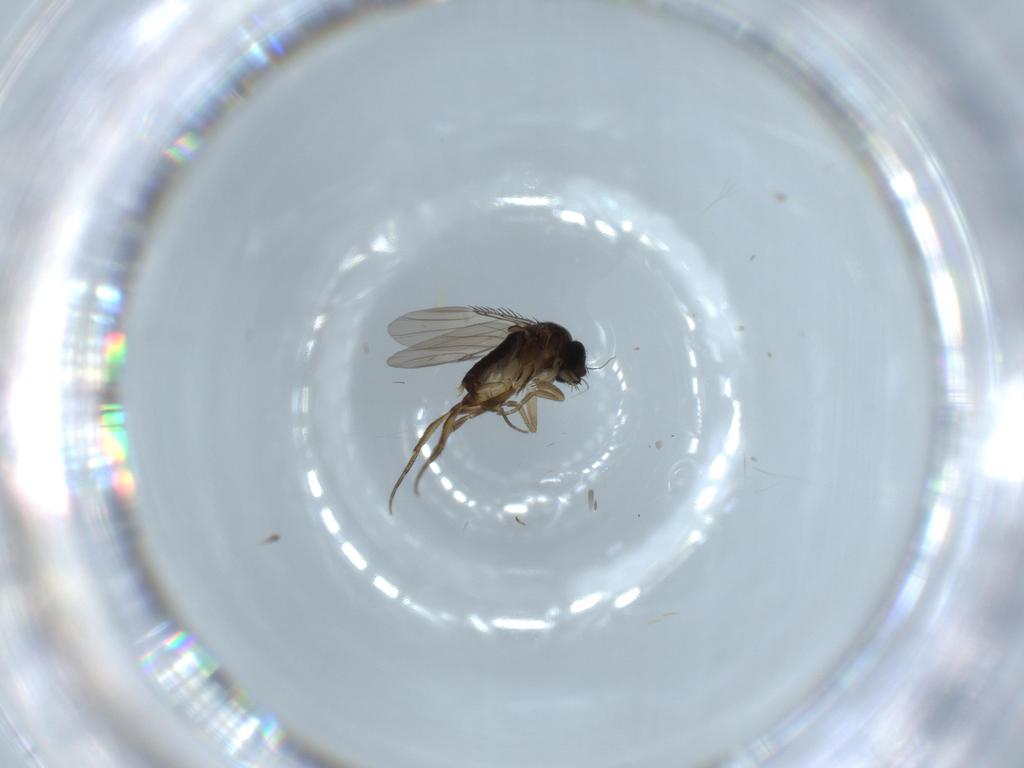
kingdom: Animalia
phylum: Arthropoda
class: Insecta
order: Diptera
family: Phoridae
